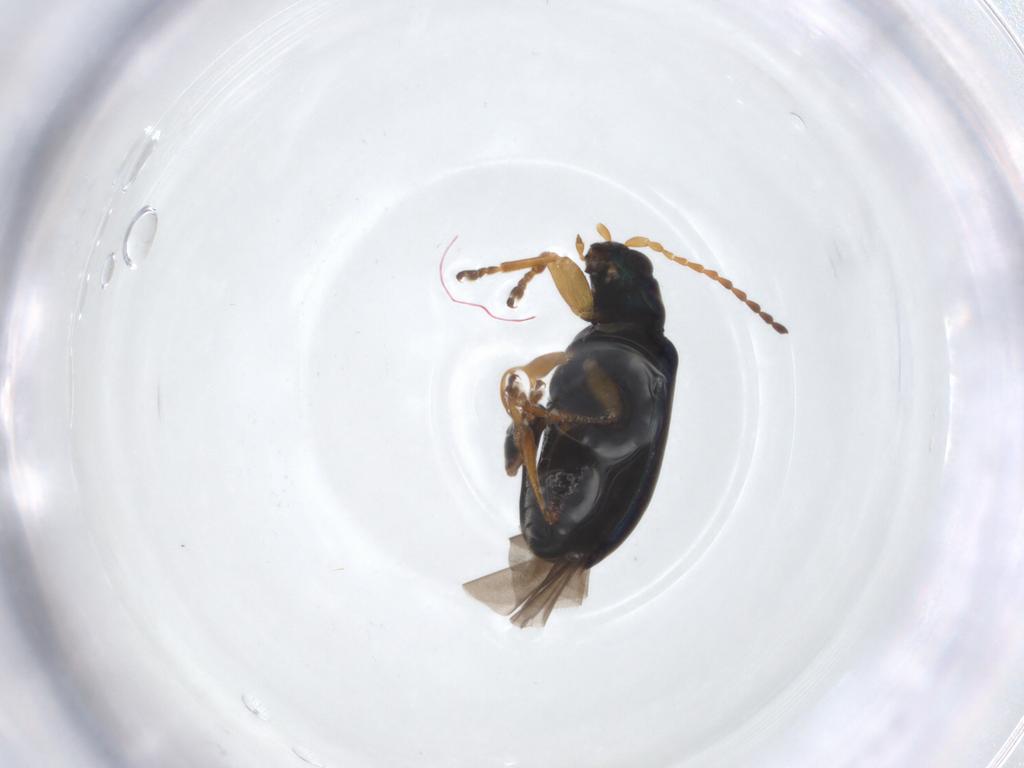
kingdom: Animalia
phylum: Arthropoda
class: Insecta
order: Coleoptera
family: Chrysomelidae
